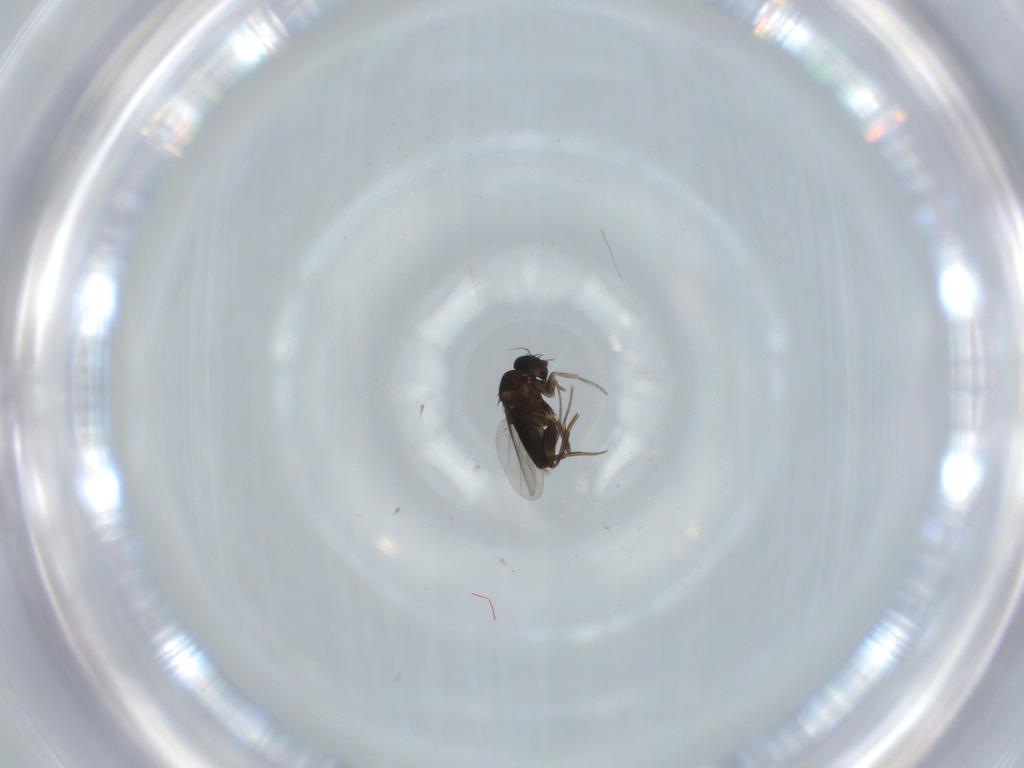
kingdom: Animalia
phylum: Arthropoda
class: Insecta
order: Diptera
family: Phoridae
